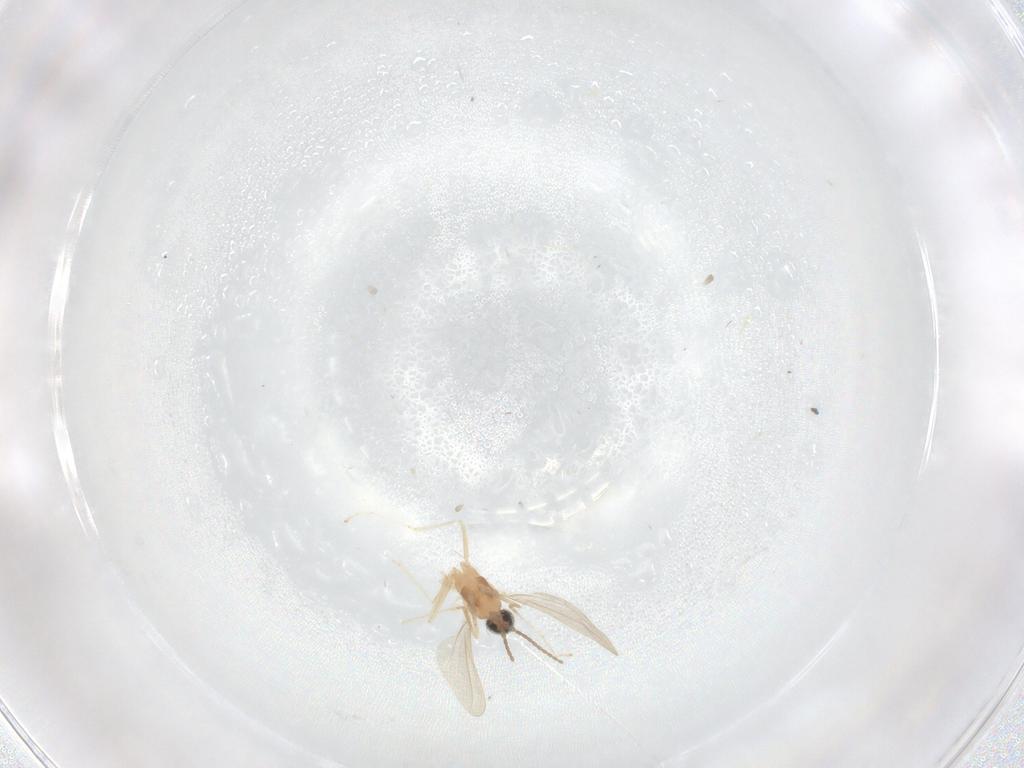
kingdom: Animalia
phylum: Arthropoda
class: Insecta
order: Diptera
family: Cecidomyiidae
